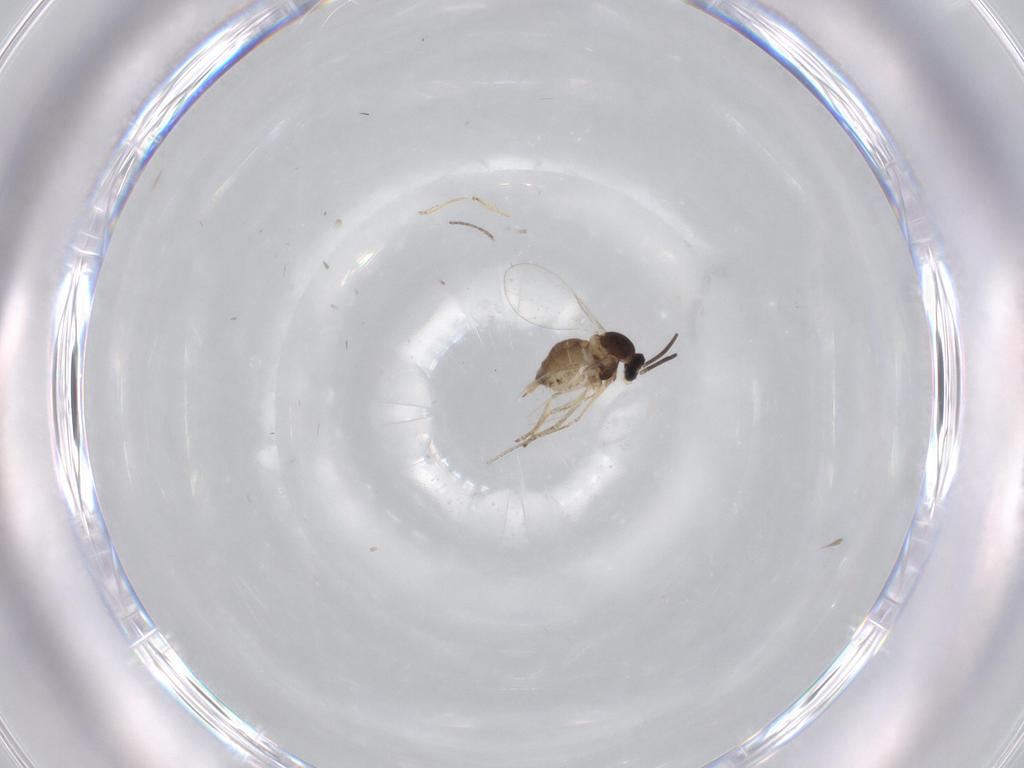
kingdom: Animalia
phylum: Arthropoda
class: Insecta
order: Diptera
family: Cecidomyiidae
